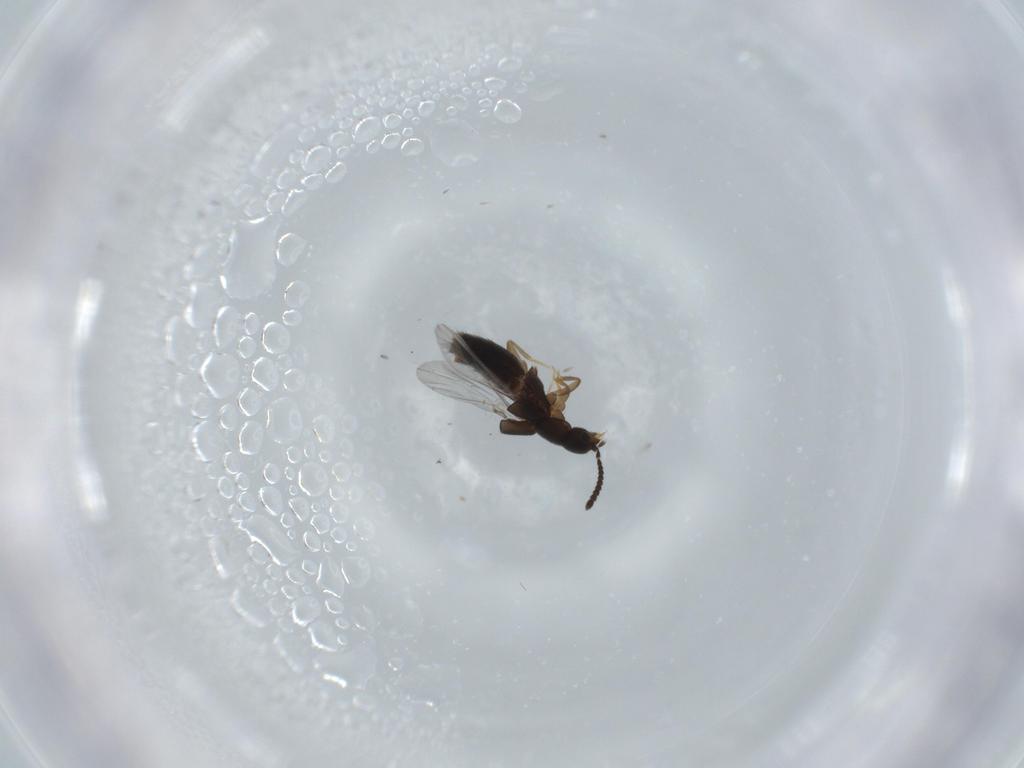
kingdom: Animalia
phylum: Arthropoda
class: Insecta
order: Coleoptera
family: Staphylinidae
